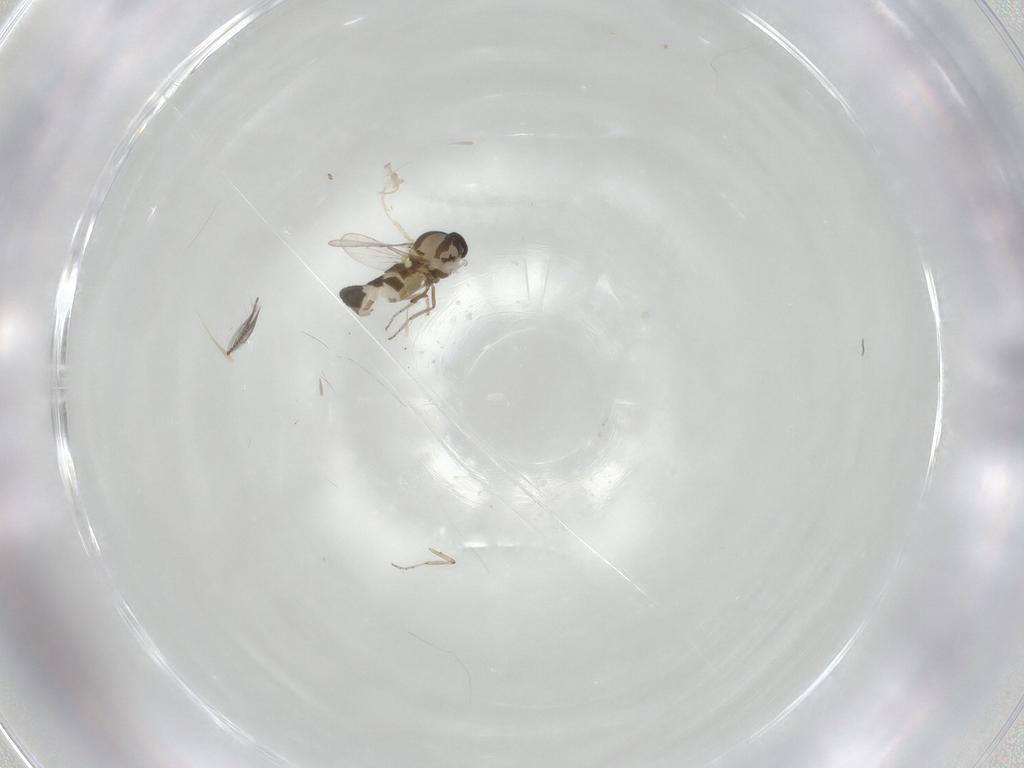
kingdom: Animalia
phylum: Arthropoda
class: Insecta
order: Diptera
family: Ceratopogonidae
